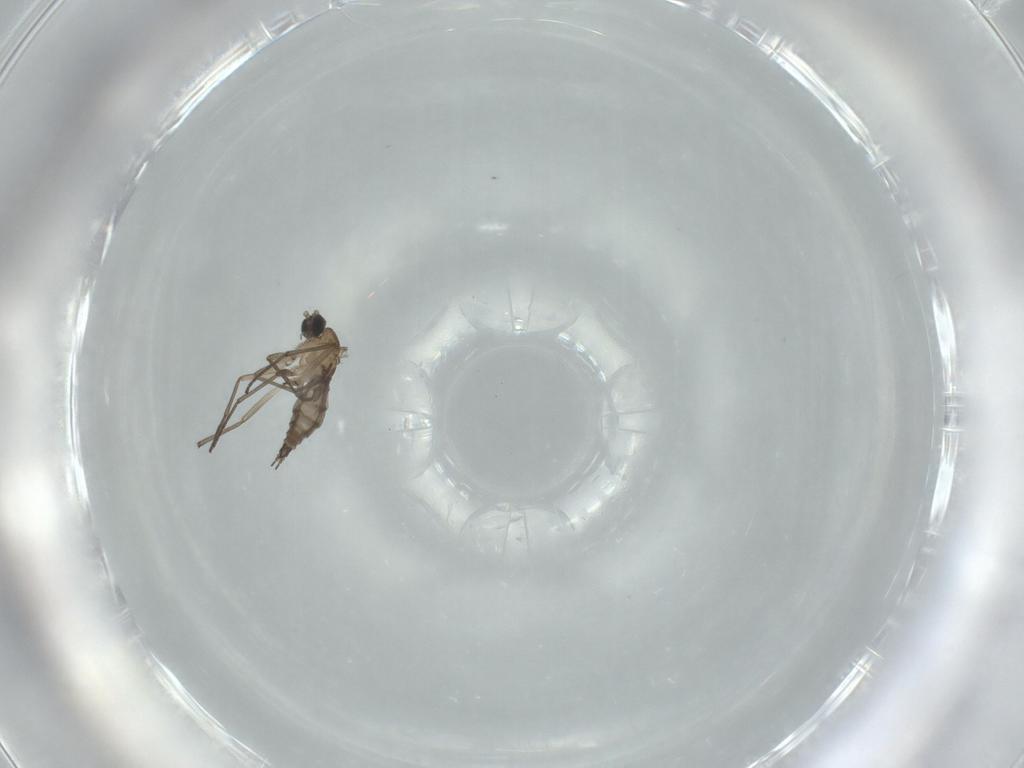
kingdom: Animalia
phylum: Arthropoda
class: Insecta
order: Diptera
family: Sciaridae
